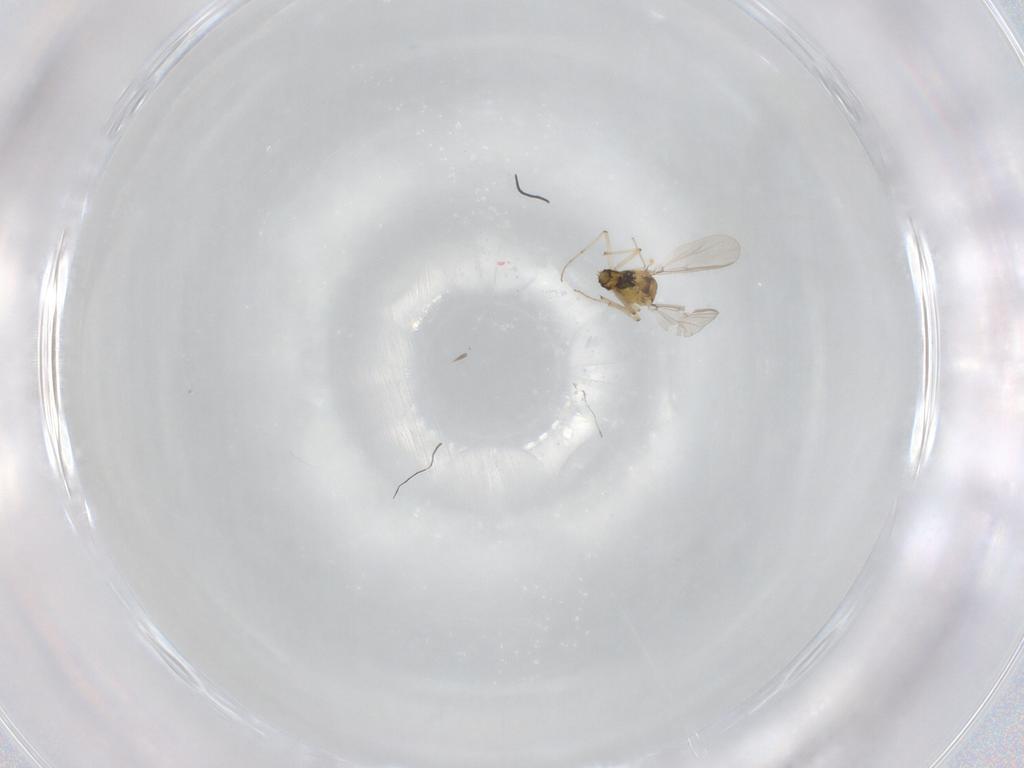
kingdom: Animalia
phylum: Arthropoda
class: Insecta
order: Diptera
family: Chironomidae
